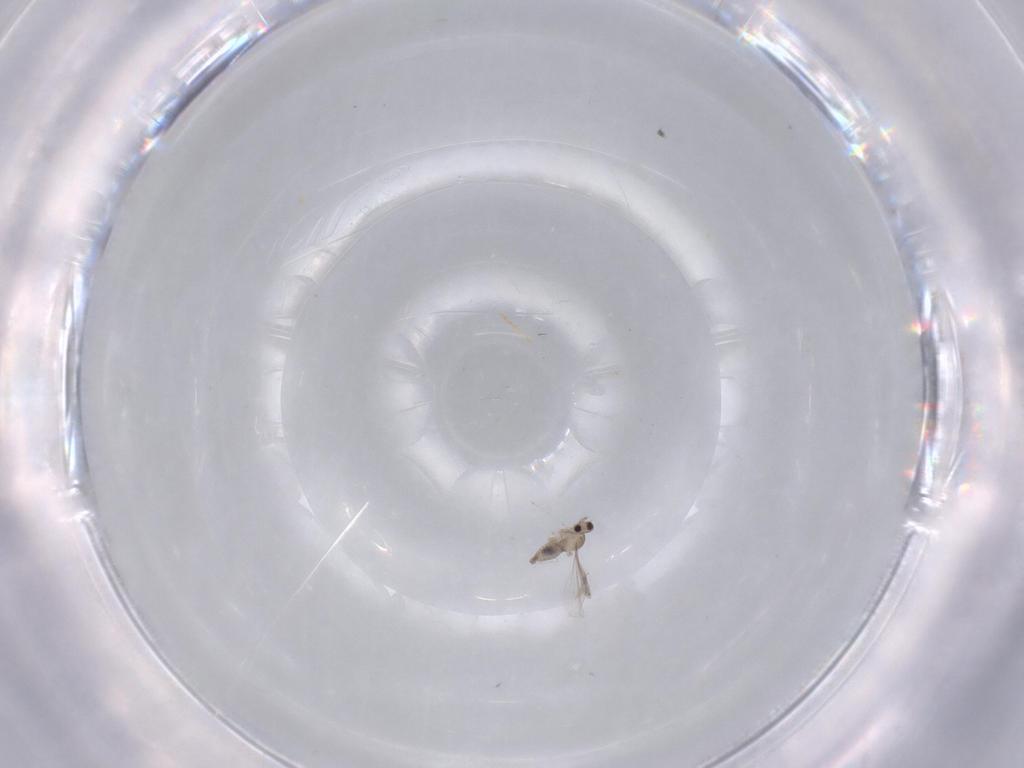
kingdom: Animalia
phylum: Arthropoda
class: Insecta
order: Diptera
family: Cecidomyiidae
